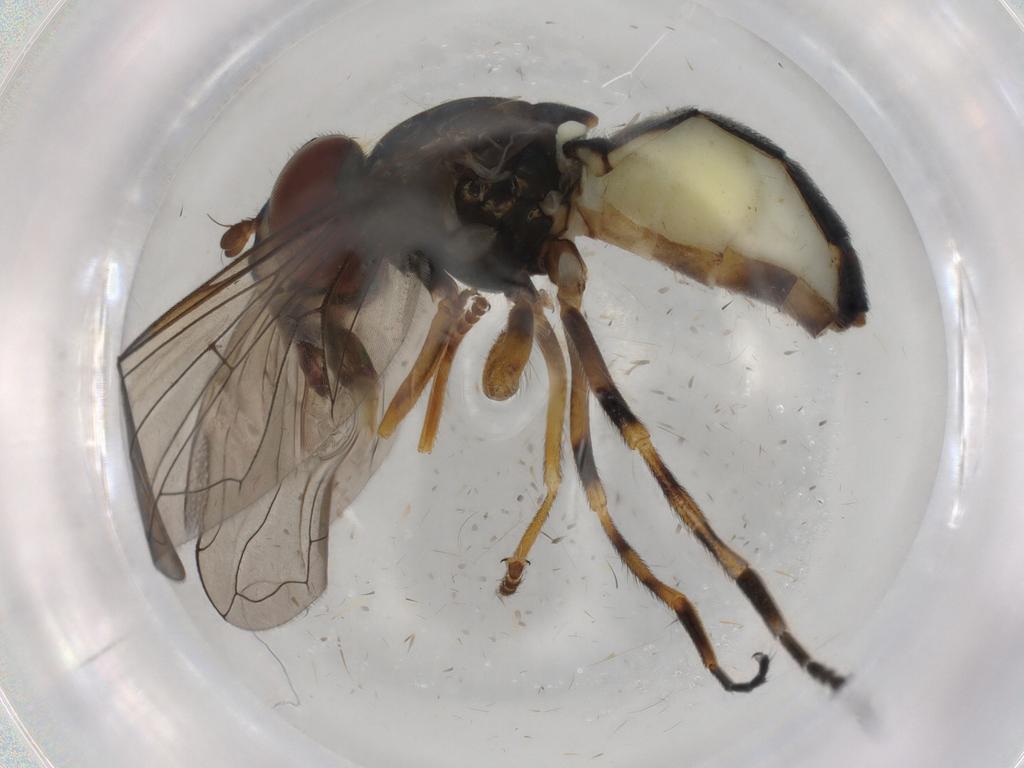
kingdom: Animalia
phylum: Arthropoda
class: Insecta
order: Diptera
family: Syrphidae
